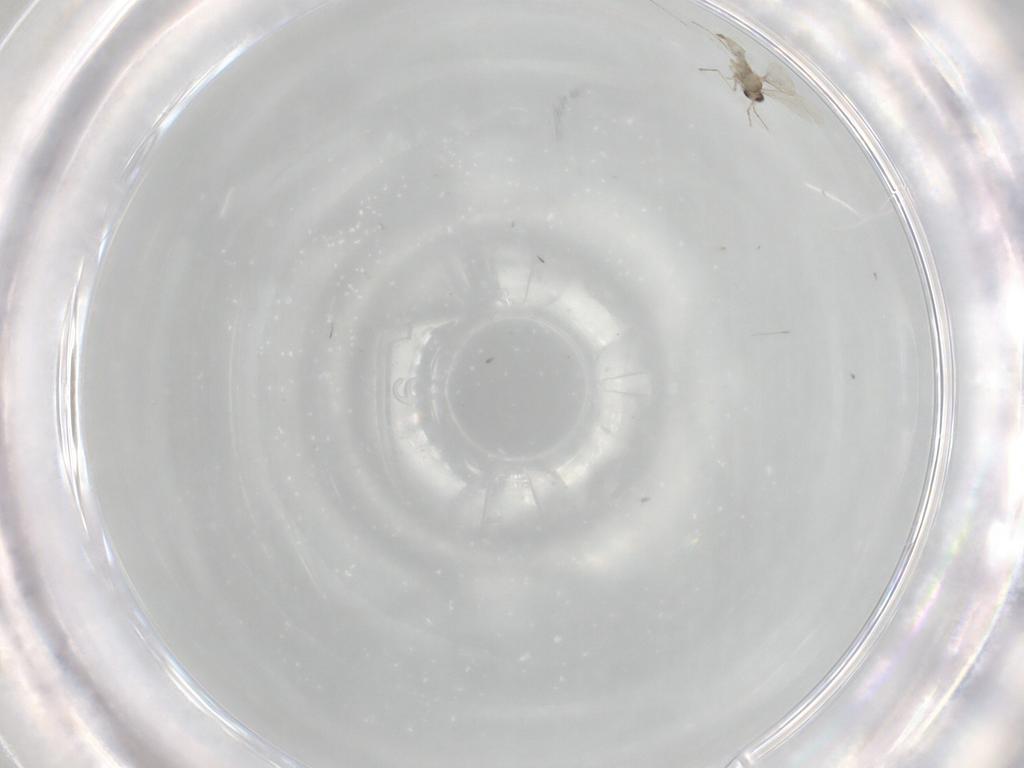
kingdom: Animalia
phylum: Arthropoda
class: Insecta
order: Diptera
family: Cecidomyiidae
